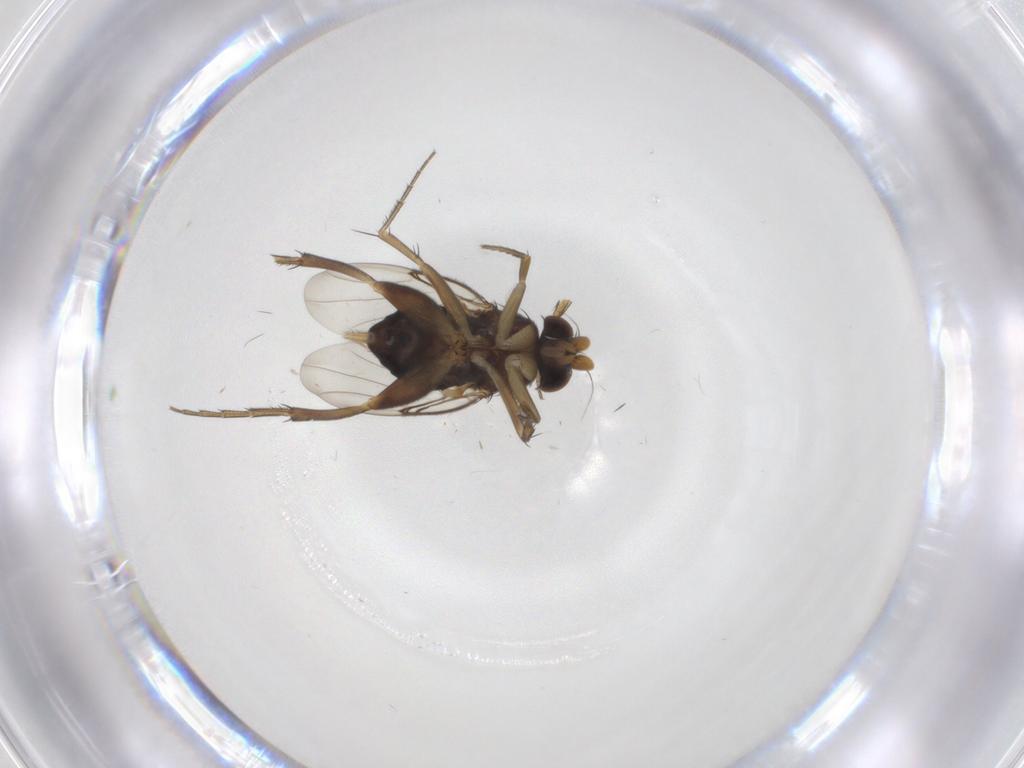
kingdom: Animalia
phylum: Arthropoda
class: Insecta
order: Diptera
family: Phoridae
